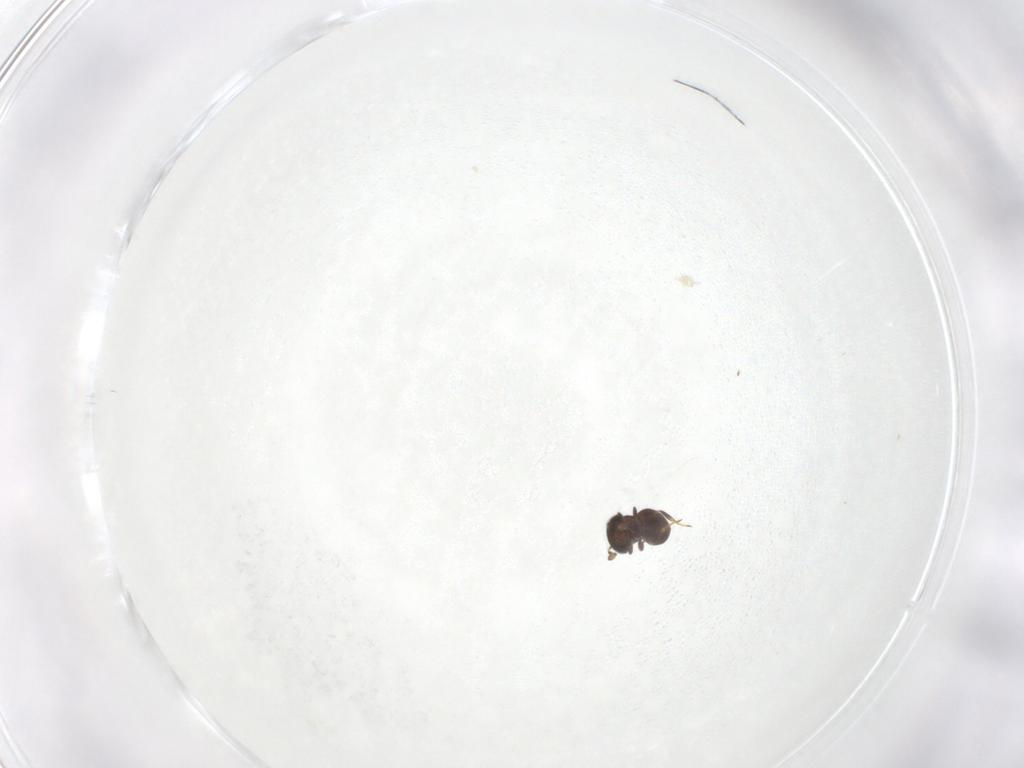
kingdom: Animalia
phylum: Arthropoda
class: Insecta
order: Hymenoptera
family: Scelionidae
